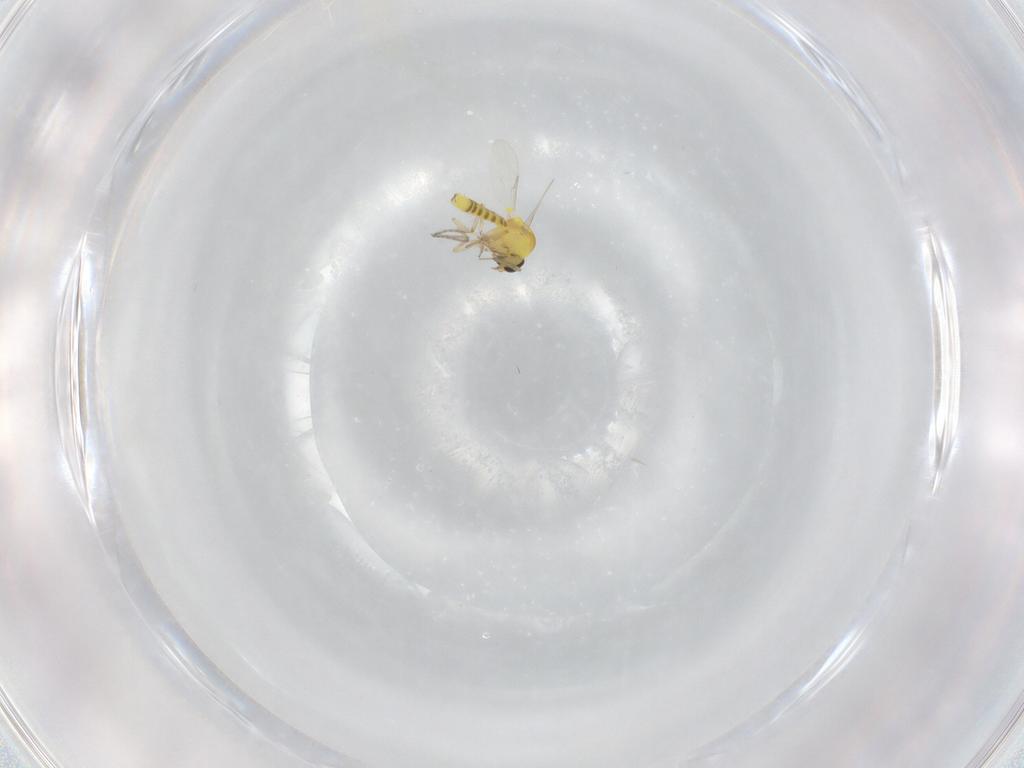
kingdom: Animalia
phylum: Arthropoda
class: Insecta
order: Diptera
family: Ceratopogonidae
